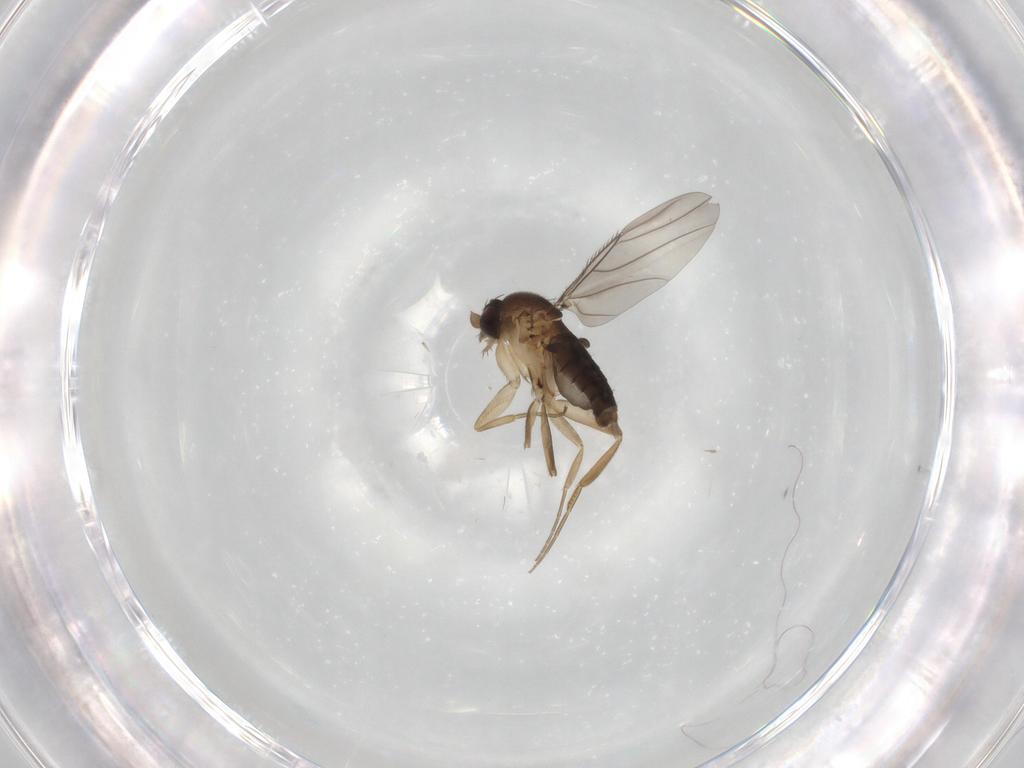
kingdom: Animalia
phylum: Arthropoda
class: Insecta
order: Diptera
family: Phoridae
